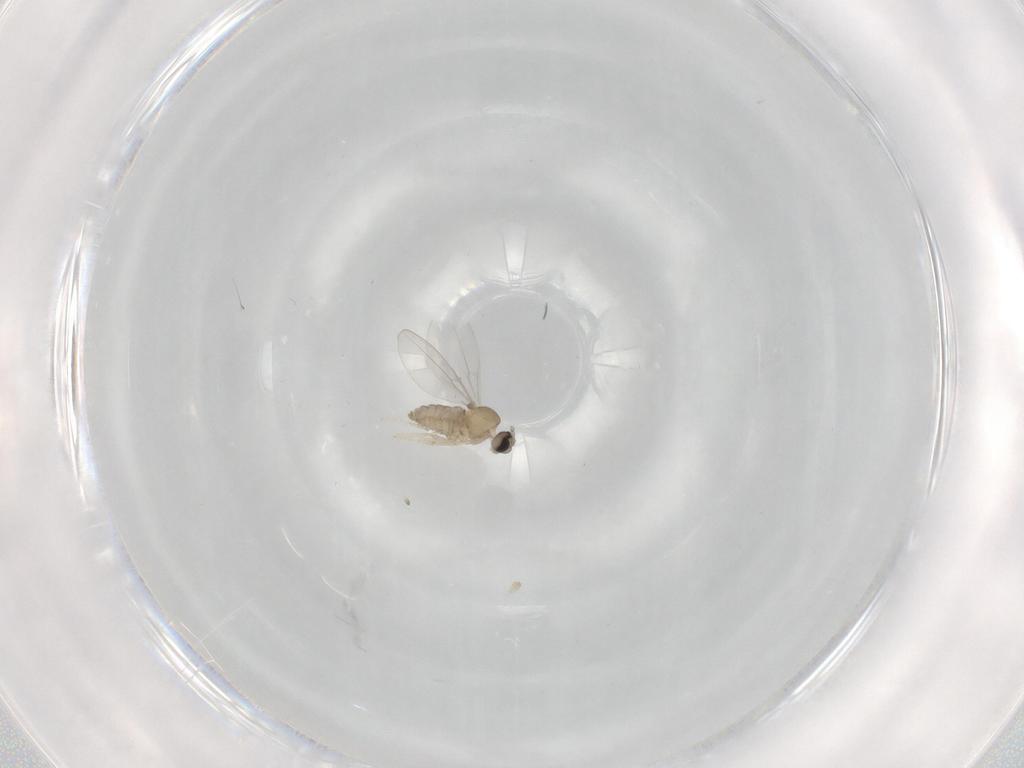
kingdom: Animalia
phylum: Arthropoda
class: Insecta
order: Diptera
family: Cecidomyiidae
